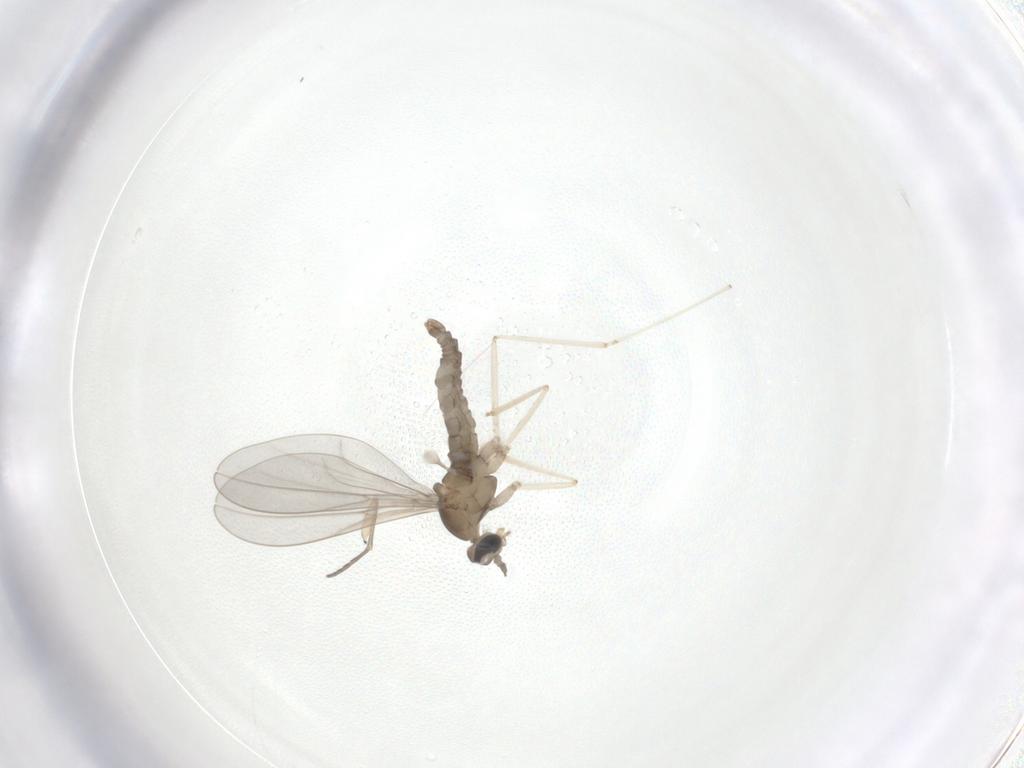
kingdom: Animalia
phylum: Arthropoda
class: Insecta
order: Diptera
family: Cecidomyiidae
